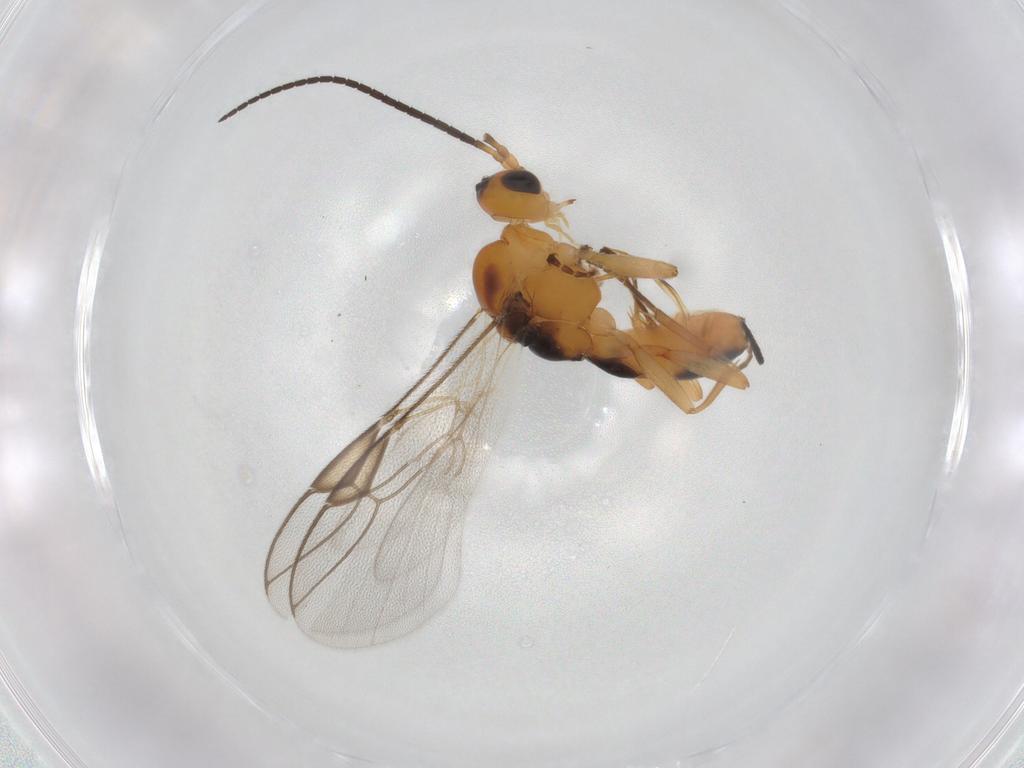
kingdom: Animalia
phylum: Arthropoda
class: Insecta
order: Hymenoptera
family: Braconidae
